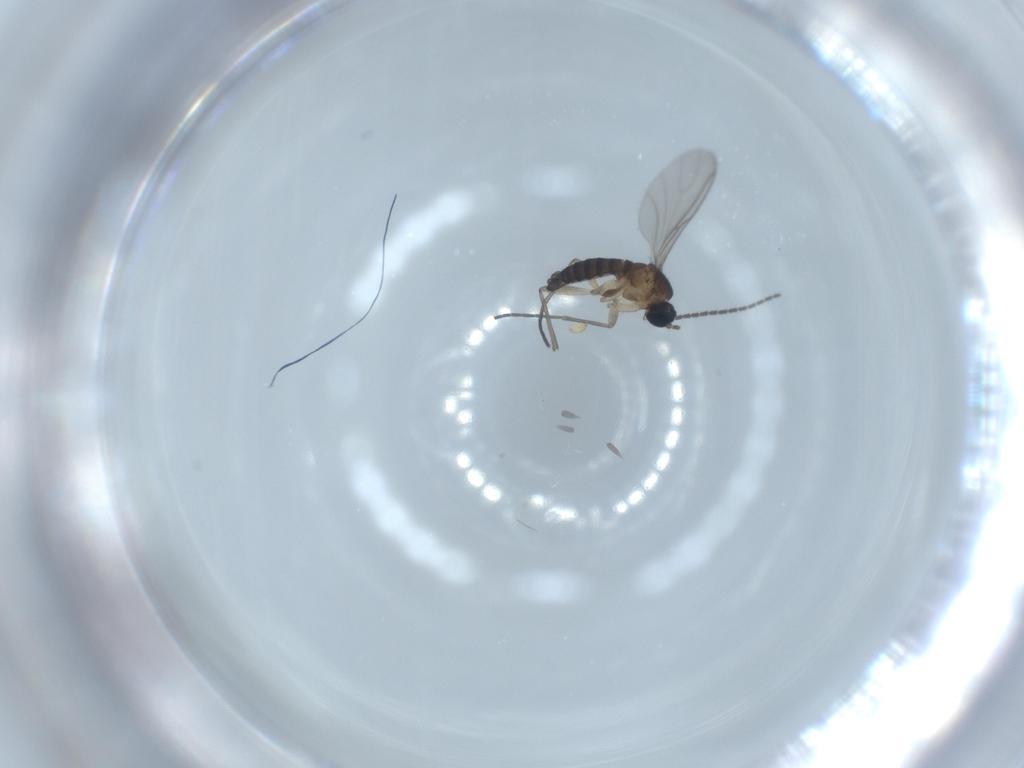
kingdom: Animalia
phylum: Arthropoda
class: Insecta
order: Diptera
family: Sciaridae
